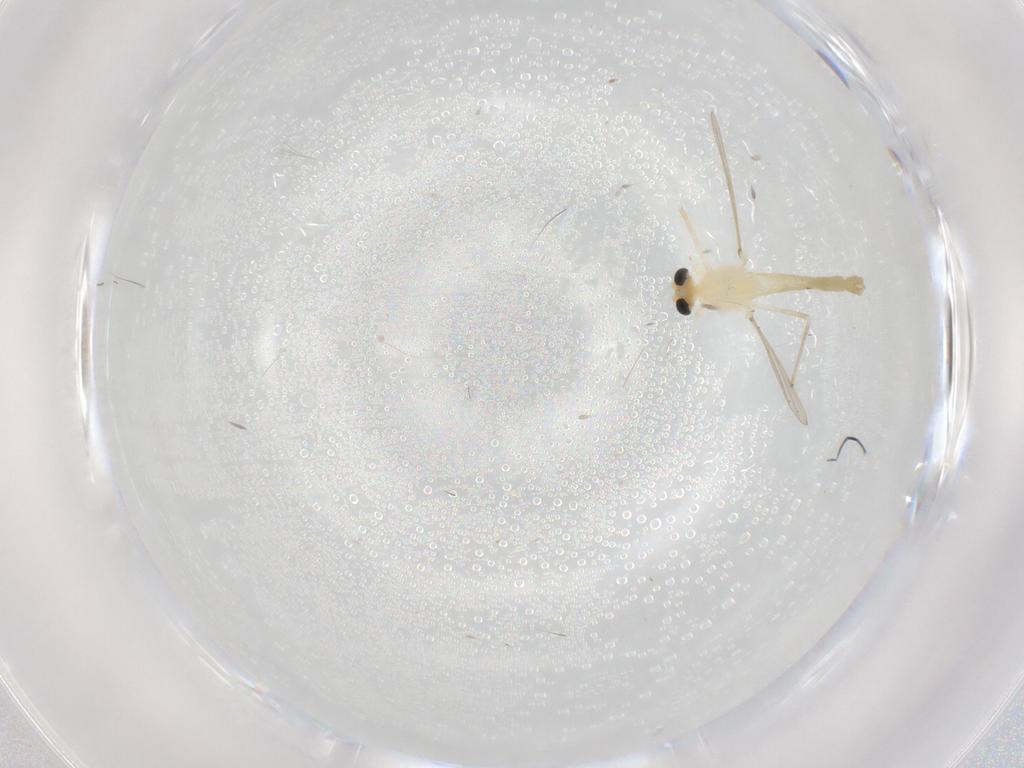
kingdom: Animalia
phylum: Arthropoda
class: Insecta
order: Diptera
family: Chironomidae
